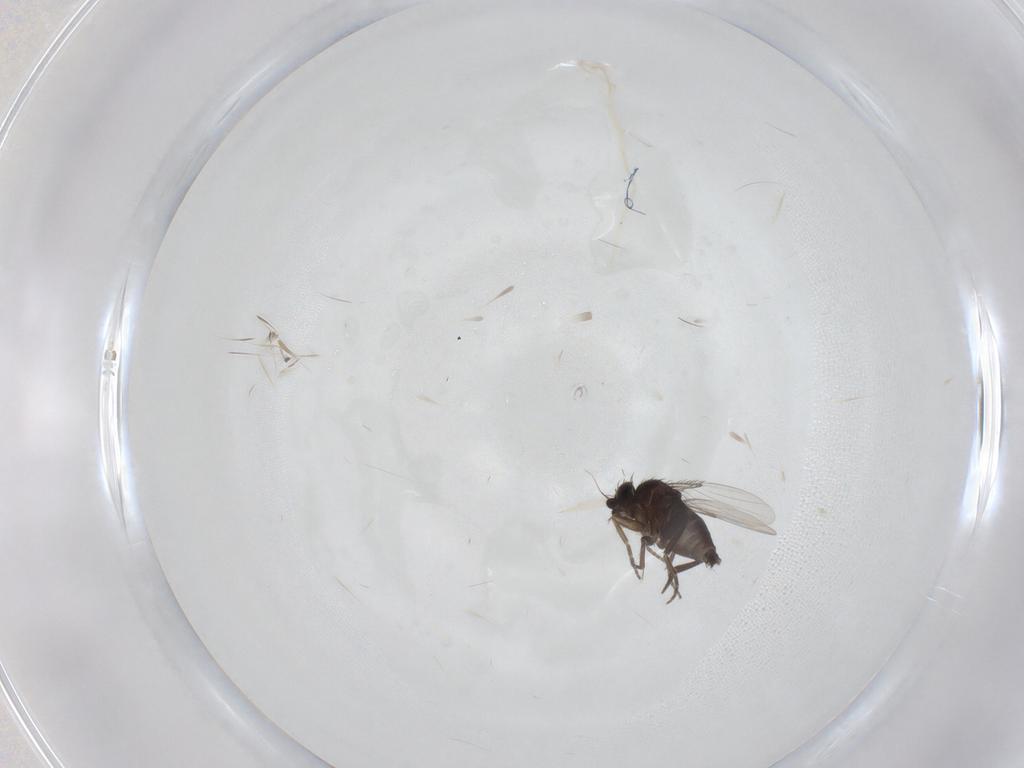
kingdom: Animalia
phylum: Arthropoda
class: Insecta
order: Diptera
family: Phoridae
